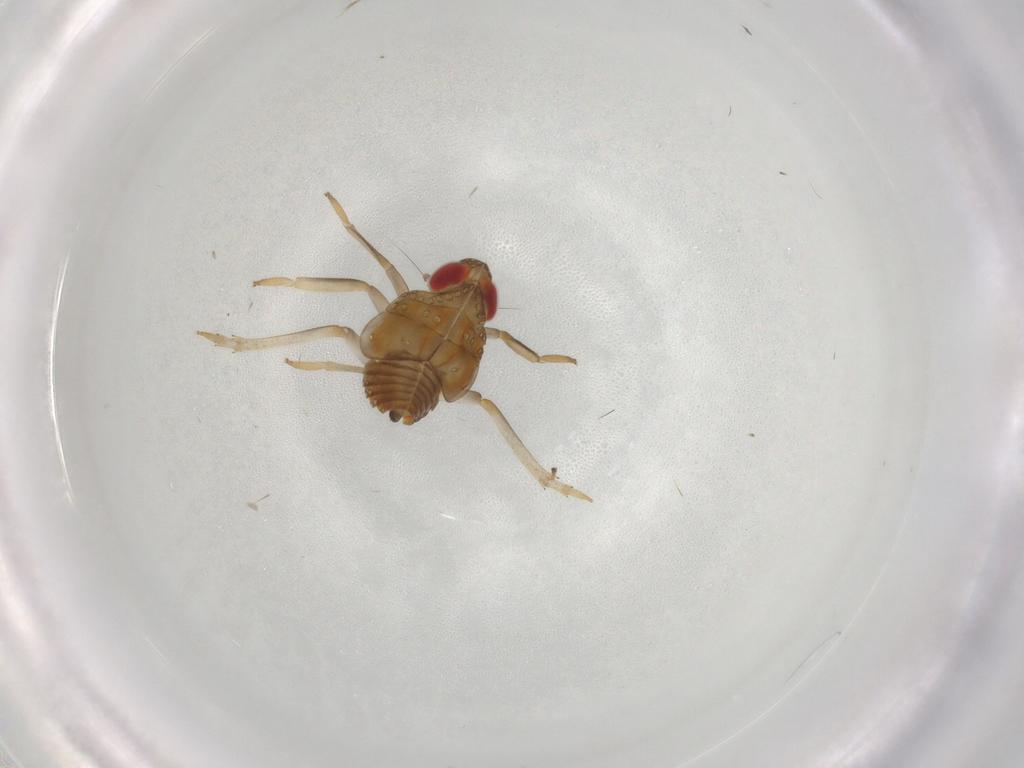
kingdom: Animalia
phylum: Arthropoda
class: Insecta
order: Hemiptera
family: Issidae
